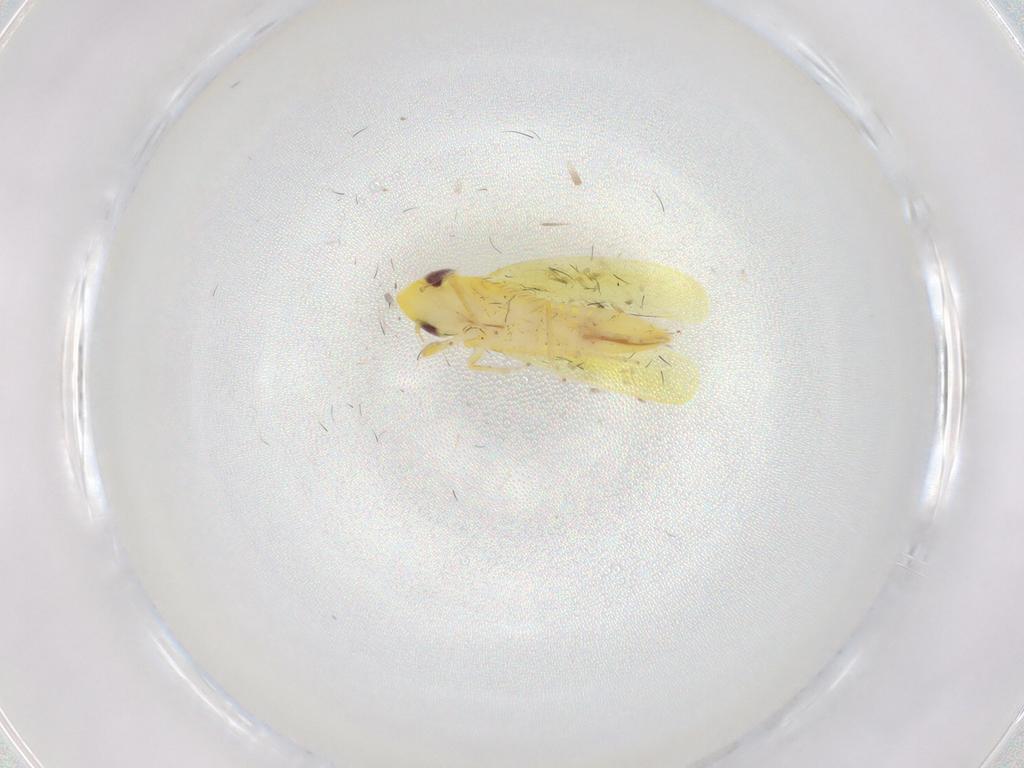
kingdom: Animalia
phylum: Arthropoda
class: Insecta
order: Hemiptera
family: Cicadellidae
